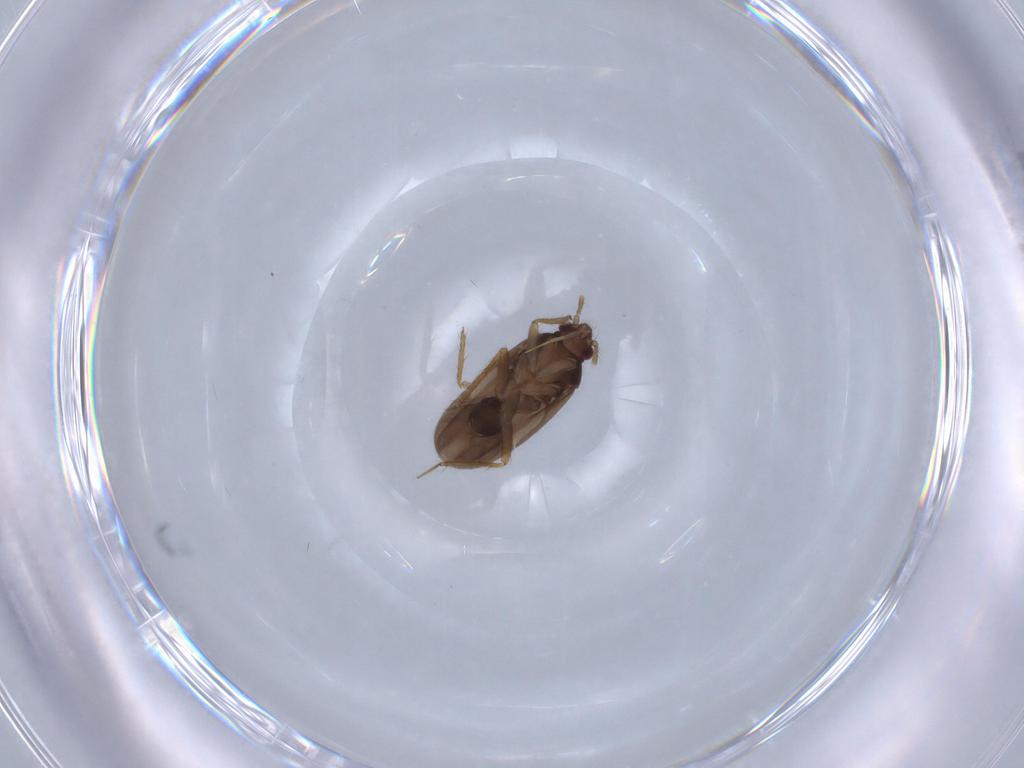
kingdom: Animalia
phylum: Arthropoda
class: Insecta
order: Hemiptera
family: Ceratocombidae
